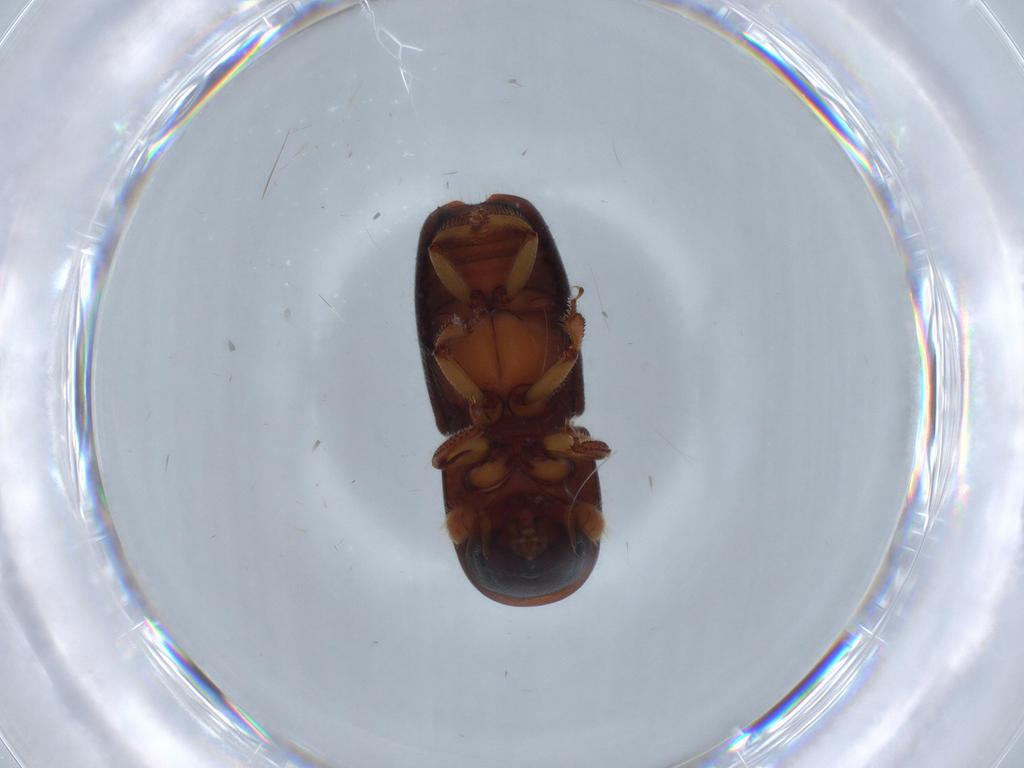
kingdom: Animalia
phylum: Arthropoda
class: Insecta
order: Coleoptera
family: Curculionidae
